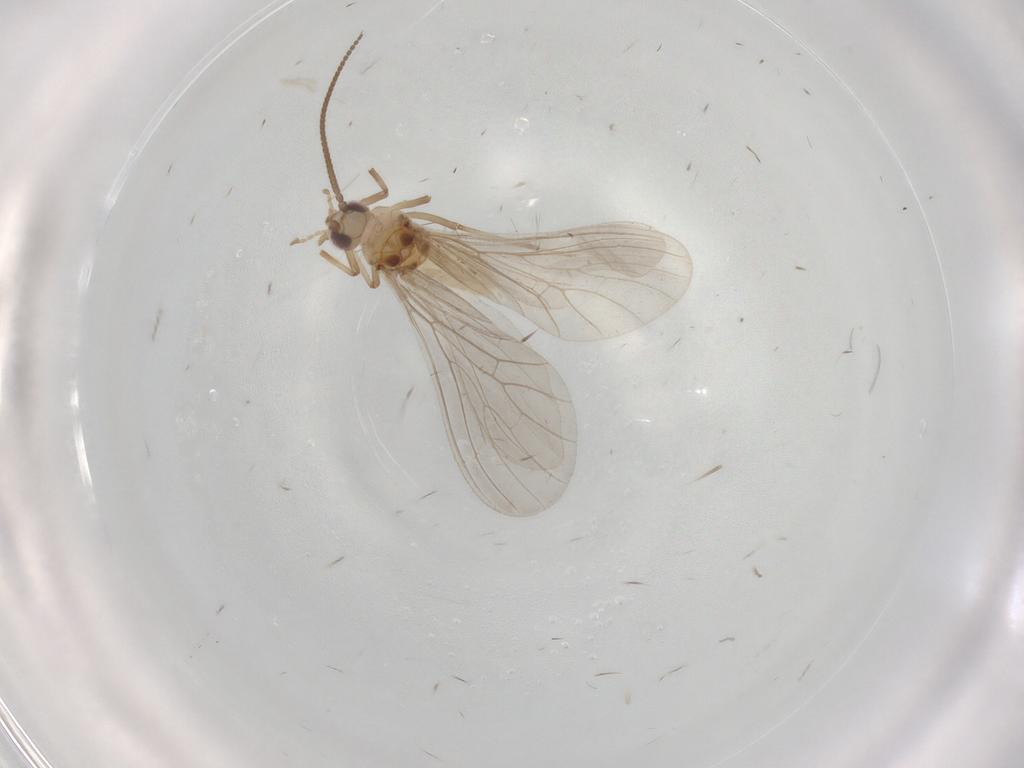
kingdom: Animalia
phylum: Arthropoda
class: Insecta
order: Neuroptera
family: Coniopterygidae
